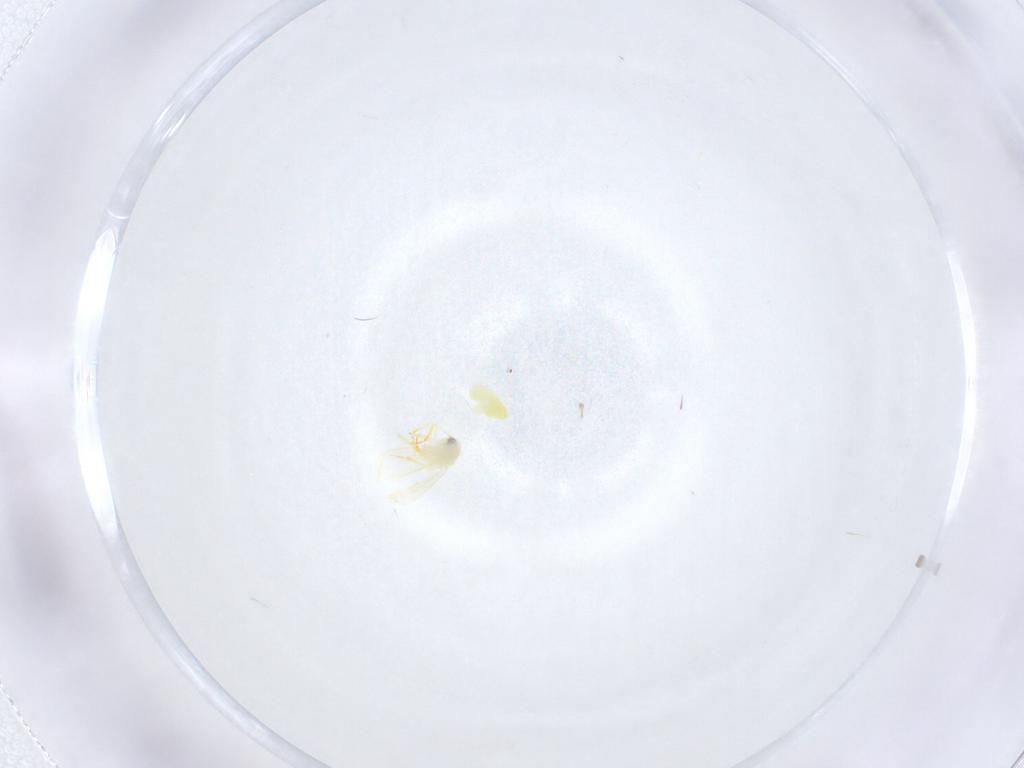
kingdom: Animalia
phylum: Arthropoda
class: Insecta
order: Hemiptera
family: Aleyrodidae
